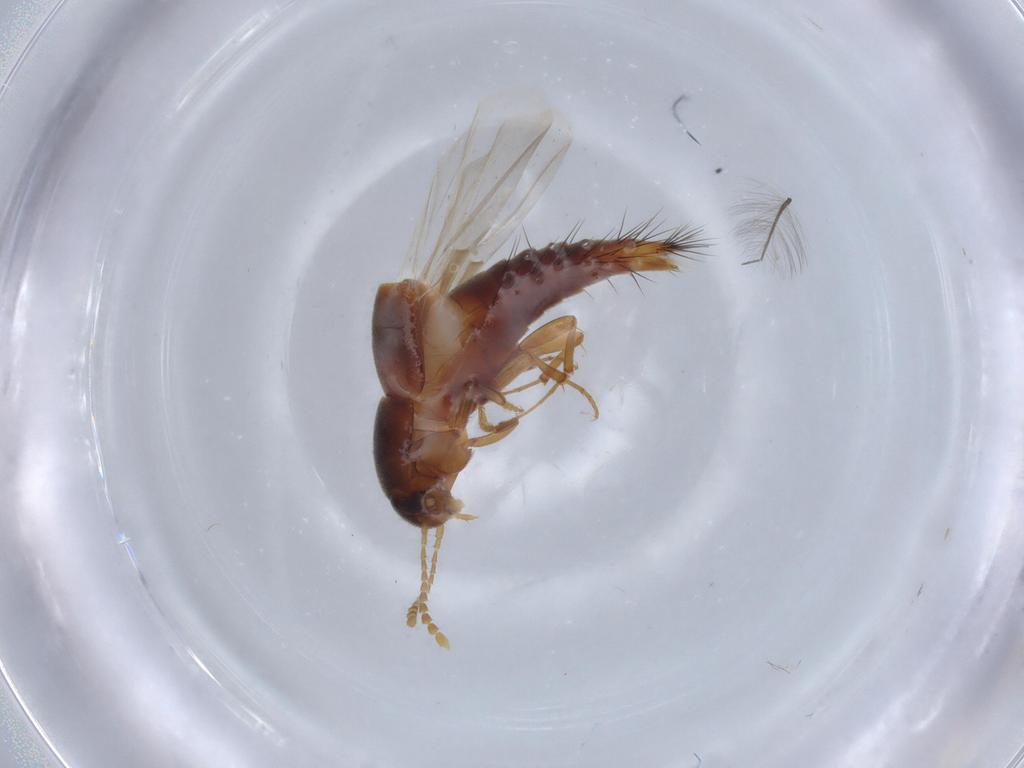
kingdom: Animalia
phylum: Arthropoda
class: Insecta
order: Coleoptera
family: Staphylinidae
